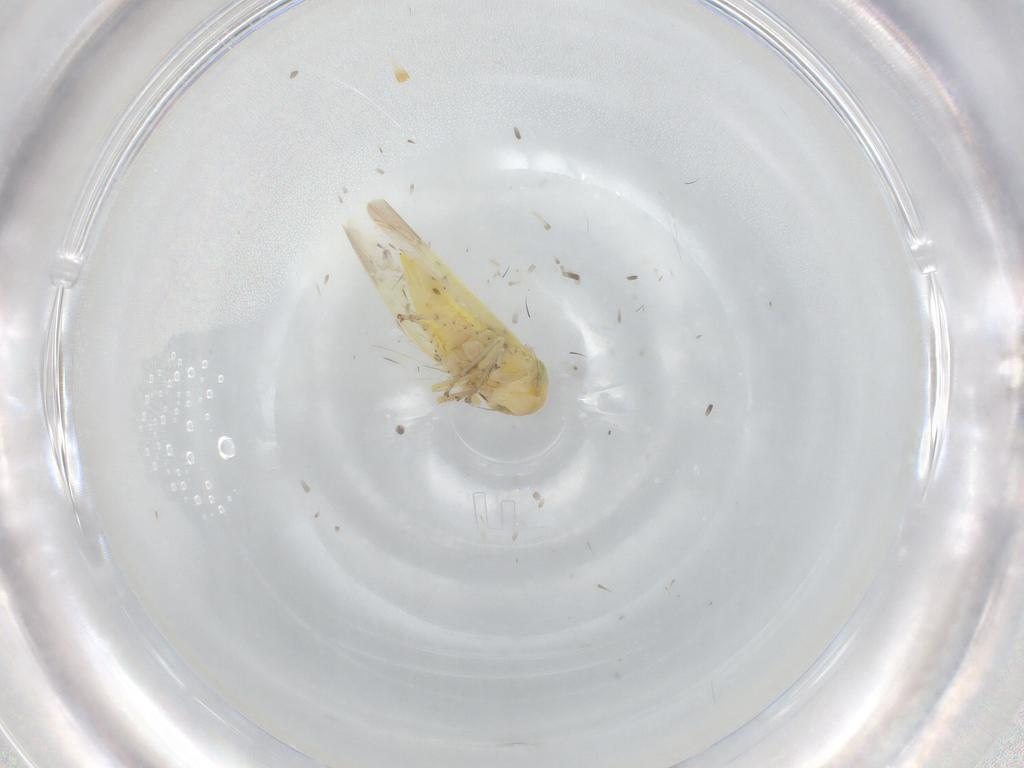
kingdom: Animalia
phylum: Arthropoda
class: Insecta
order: Hemiptera
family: Cicadellidae
